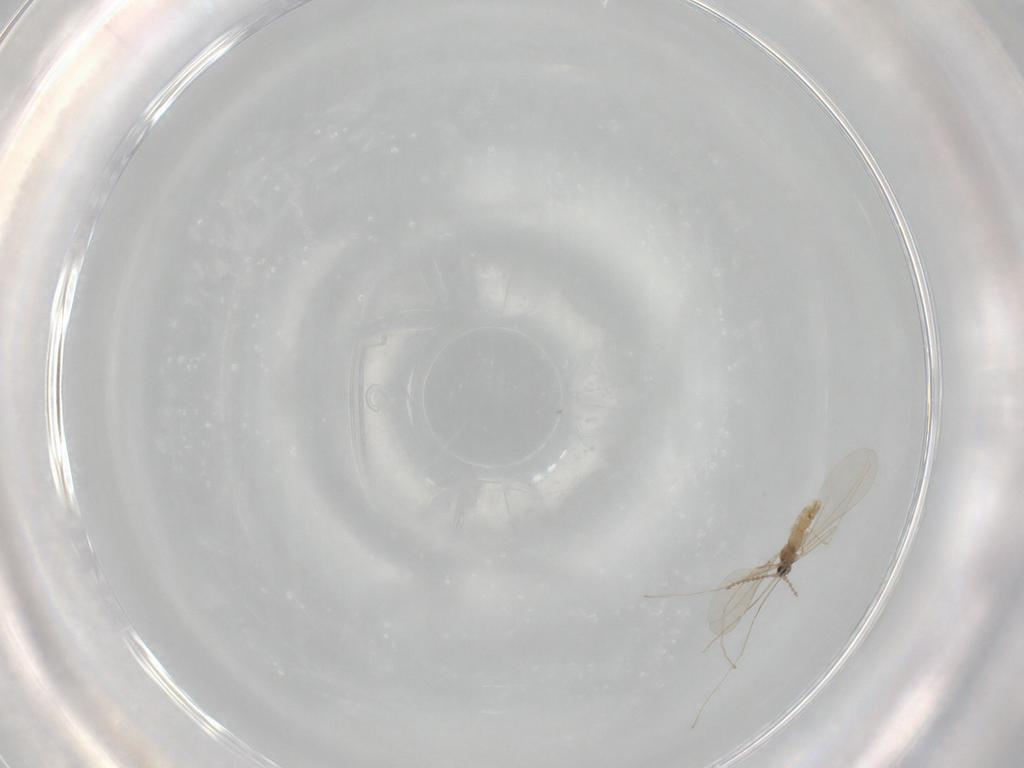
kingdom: Animalia
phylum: Arthropoda
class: Insecta
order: Diptera
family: Cecidomyiidae
